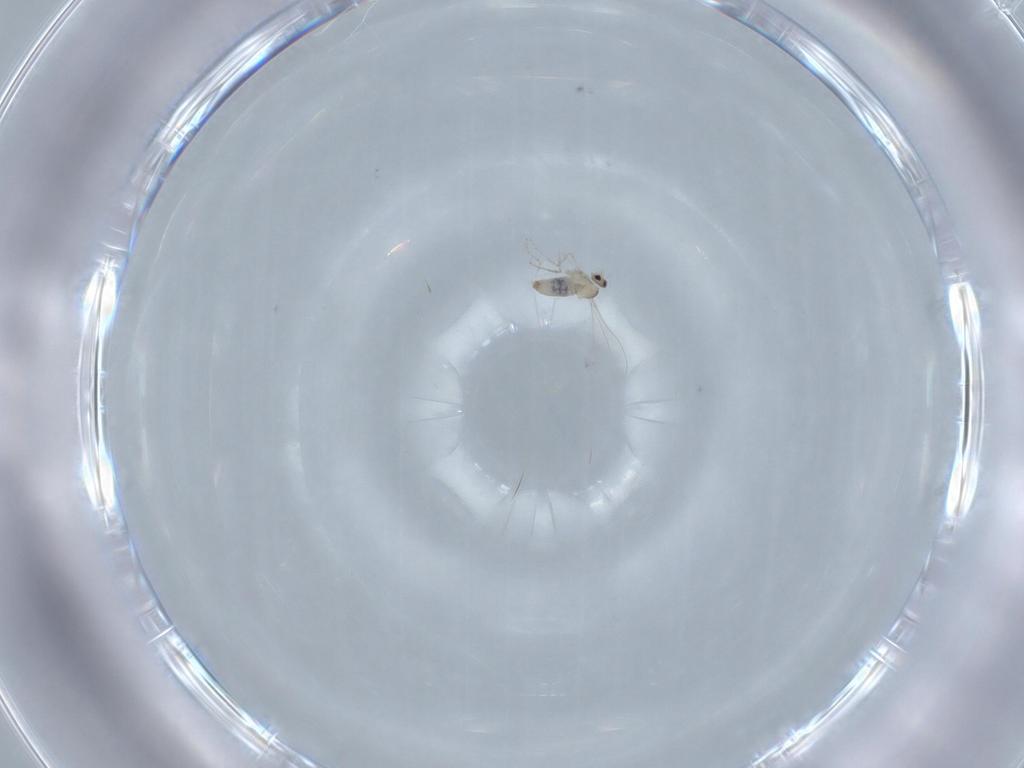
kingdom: Animalia
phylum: Arthropoda
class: Insecta
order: Diptera
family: Cecidomyiidae
